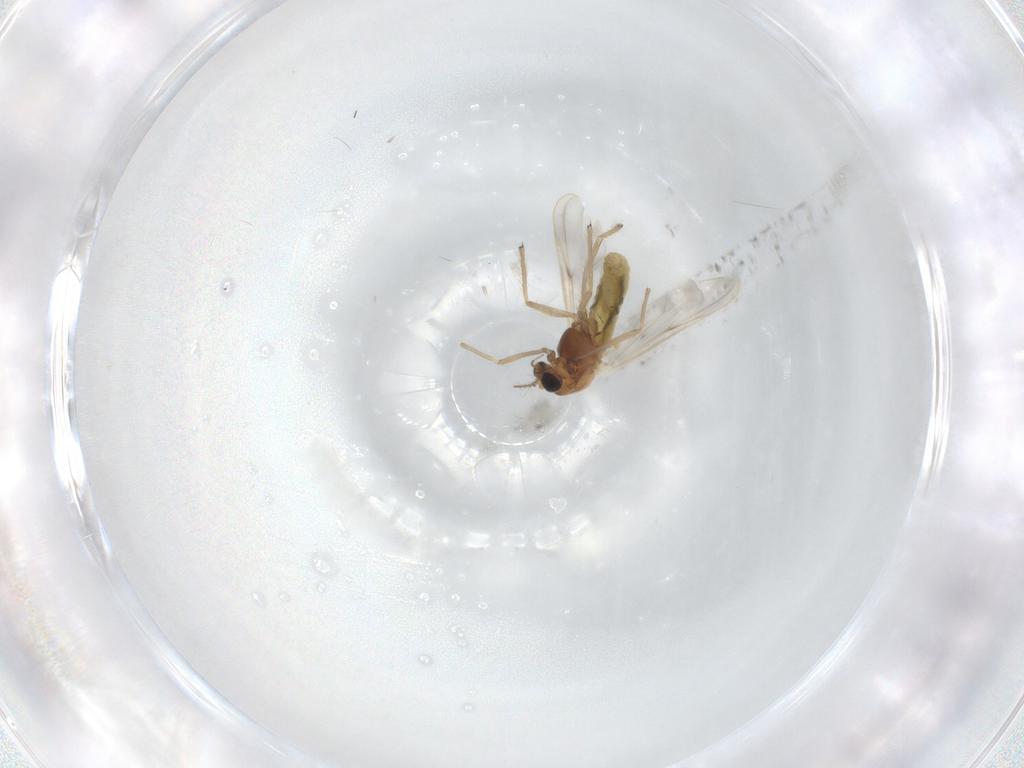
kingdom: Animalia
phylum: Arthropoda
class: Insecta
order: Diptera
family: Chironomidae
